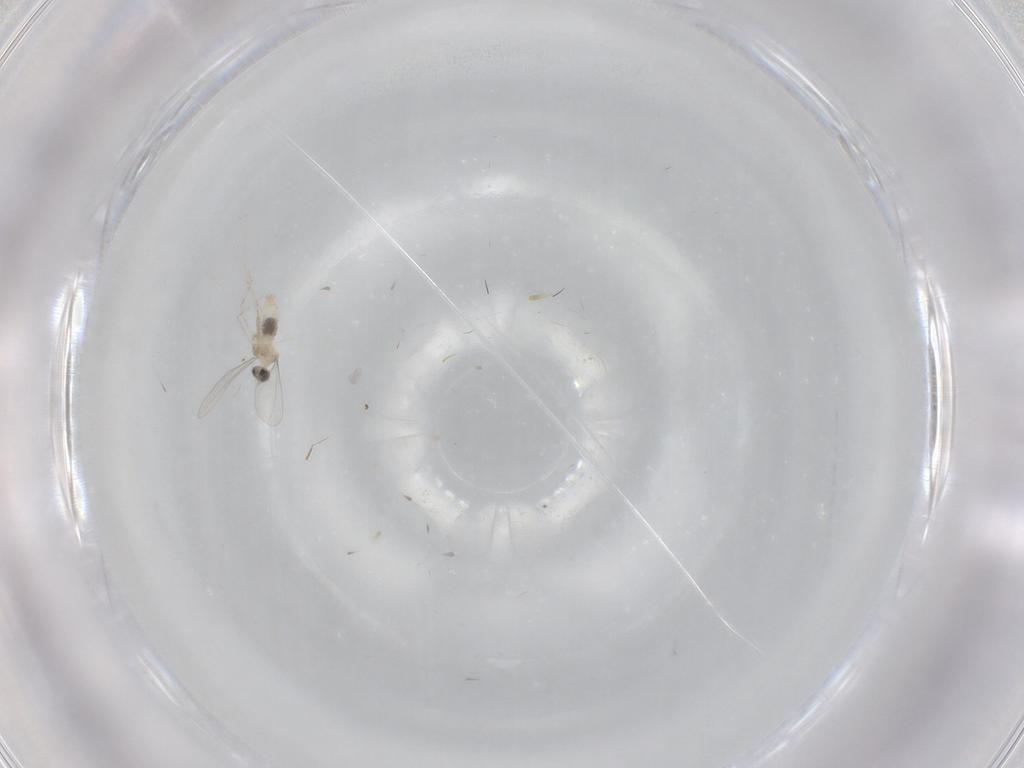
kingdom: Animalia
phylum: Arthropoda
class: Insecta
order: Diptera
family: Cecidomyiidae
